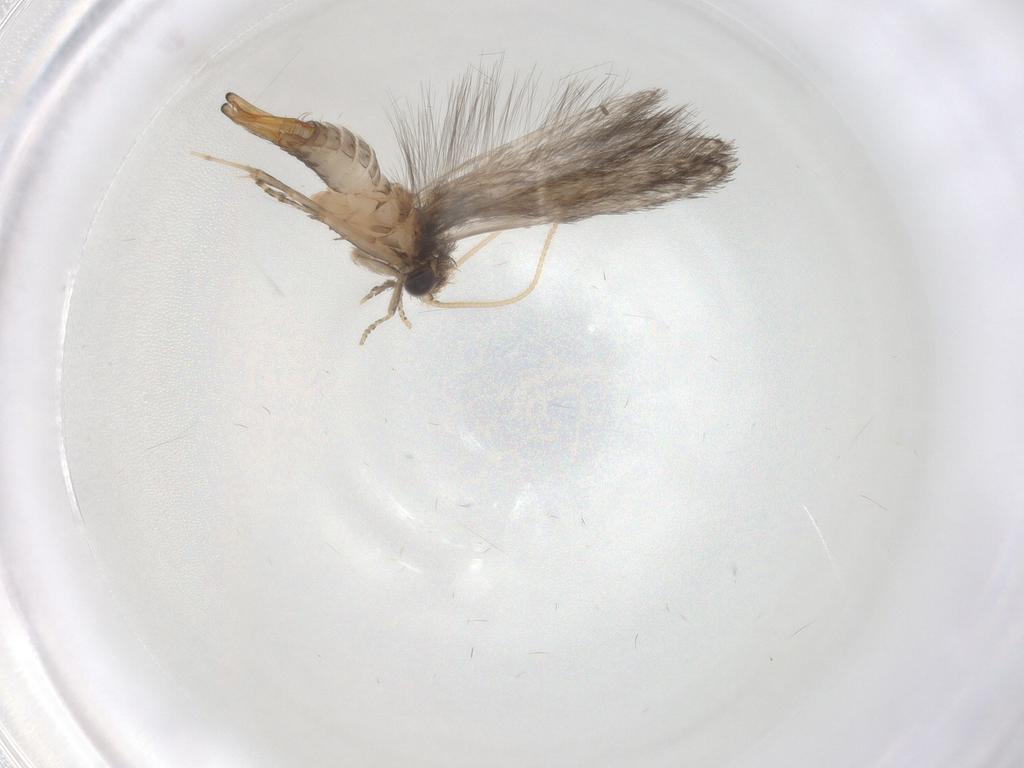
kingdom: Animalia
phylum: Arthropoda
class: Insecta
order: Trichoptera
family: Hydroptilidae
